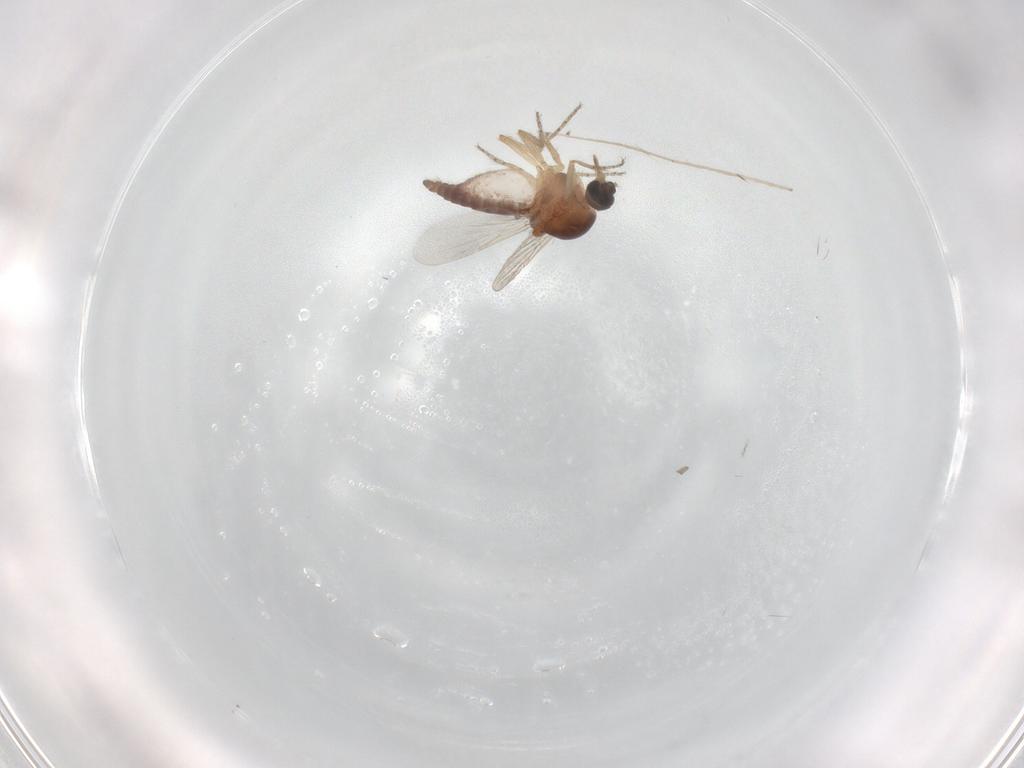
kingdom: Animalia
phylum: Arthropoda
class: Insecta
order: Diptera
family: Ceratopogonidae
